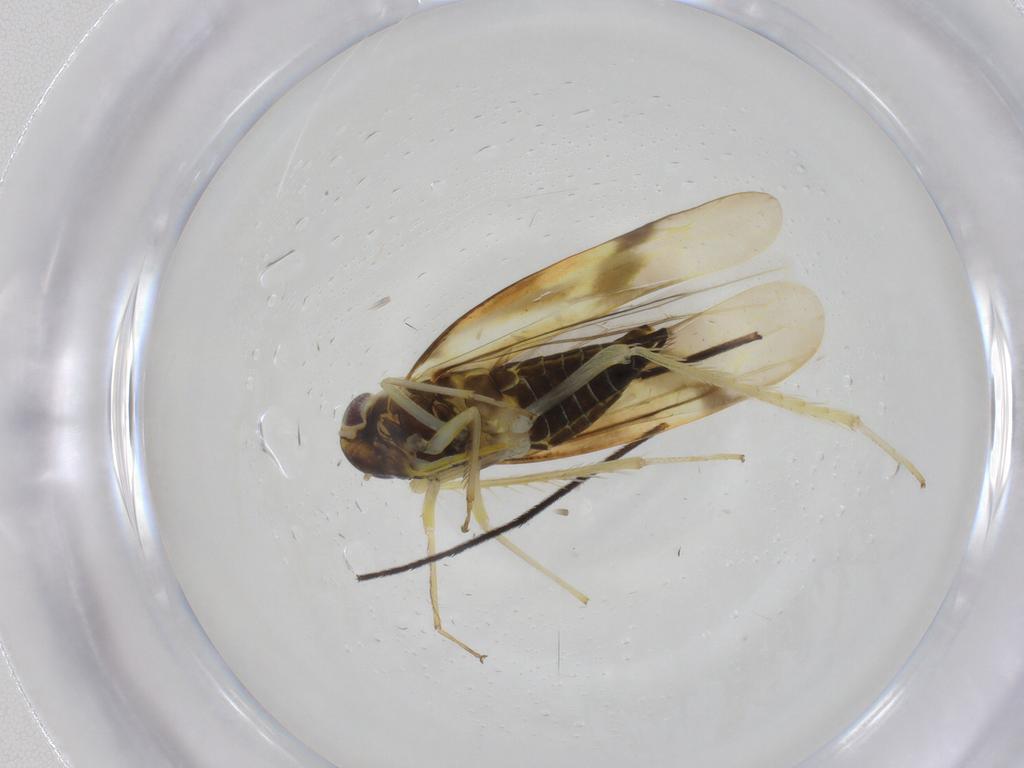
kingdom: Animalia
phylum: Arthropoda
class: Insecta
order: Hemiptera
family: Cicadellidae
